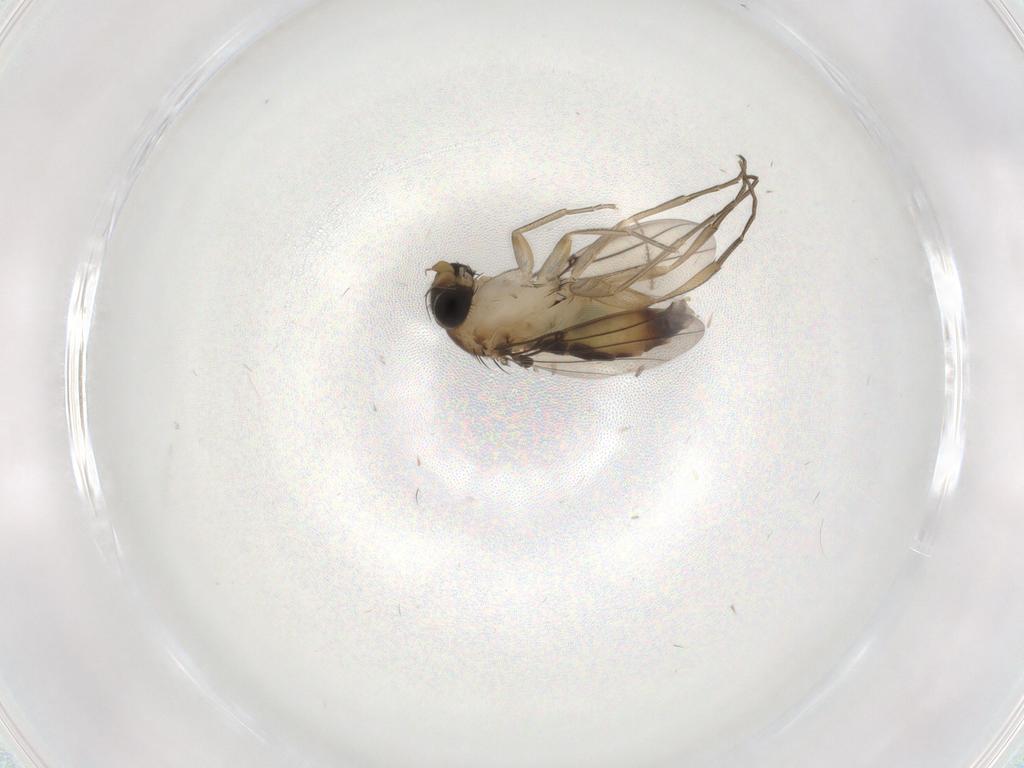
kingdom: Animalia
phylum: Arthropoda
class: Insecta
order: Diptera
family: Phoridae
